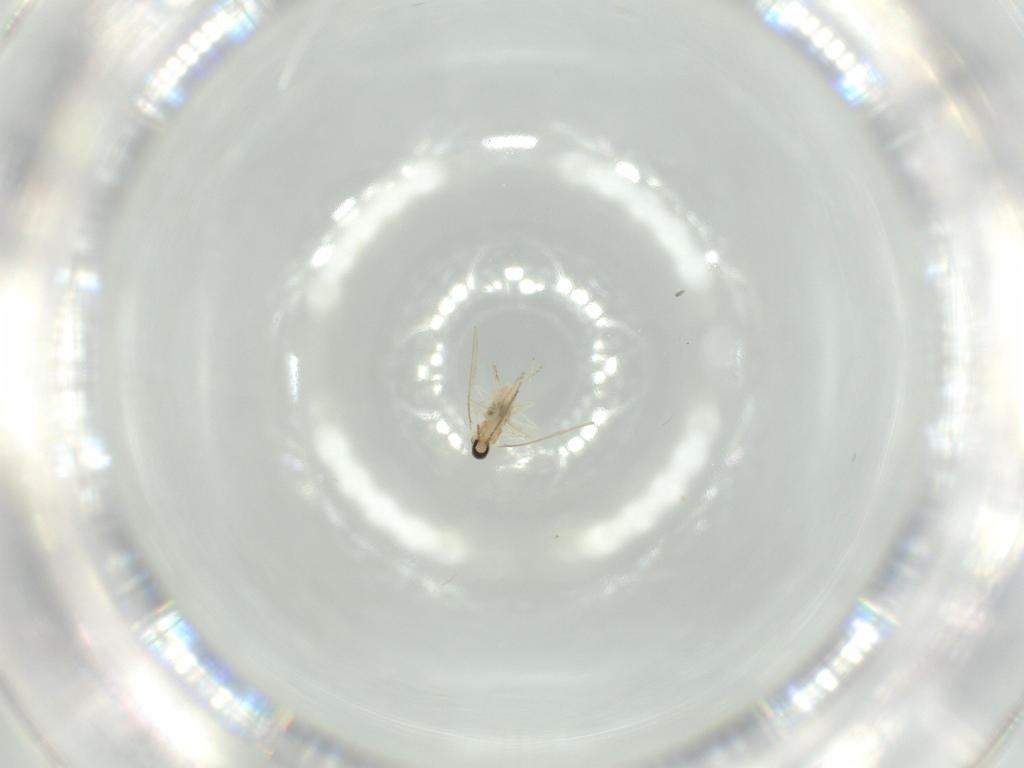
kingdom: Animalia
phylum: Arthropoda
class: Insecta
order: Diptera
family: Cecidomyiidae
